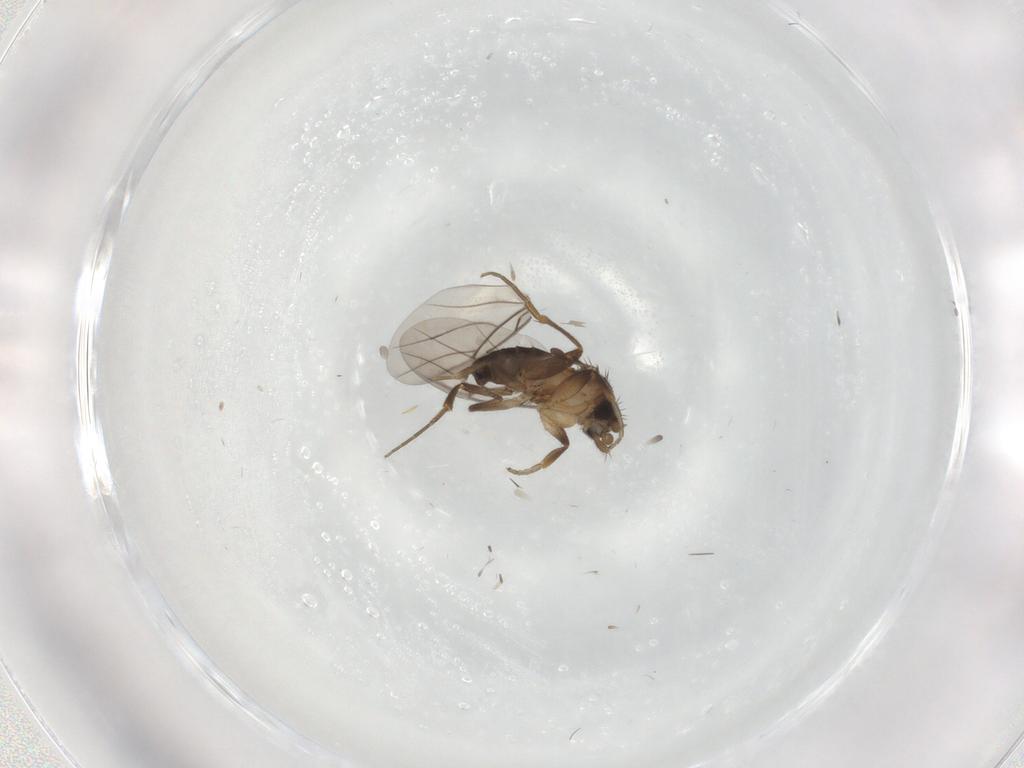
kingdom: Animalia
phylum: Arthropoda
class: Insecta
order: Diptera
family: Phoridae
